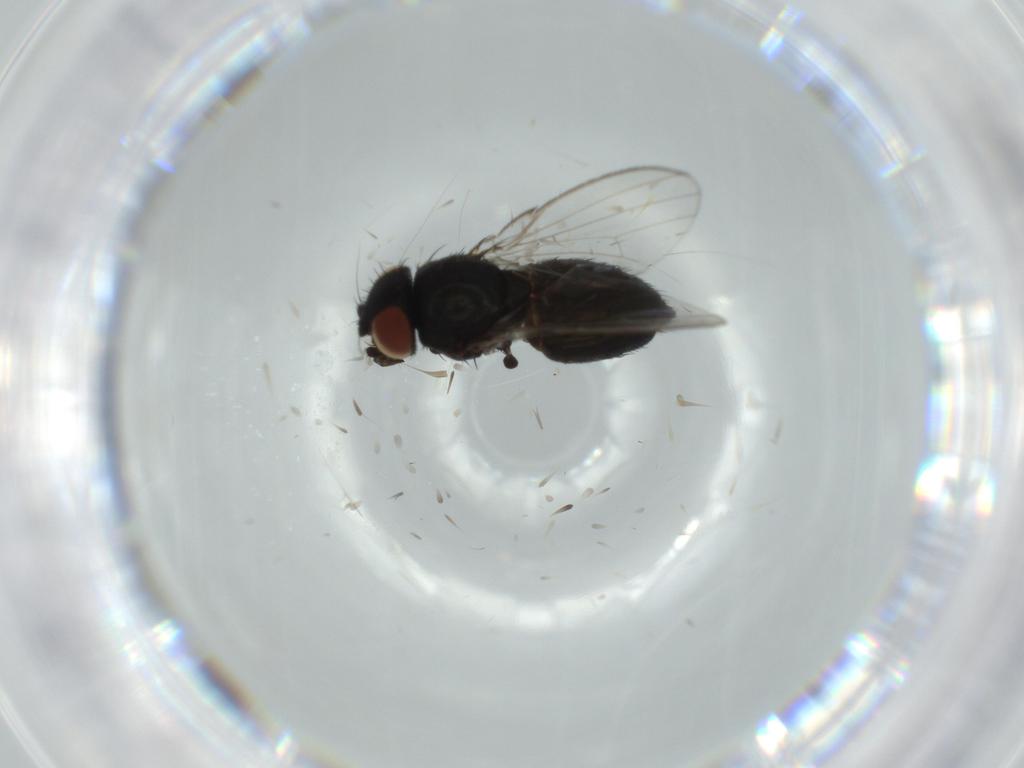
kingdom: Animalia
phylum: Arthropoda
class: Insecta
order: Diptera
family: Milichiidae
